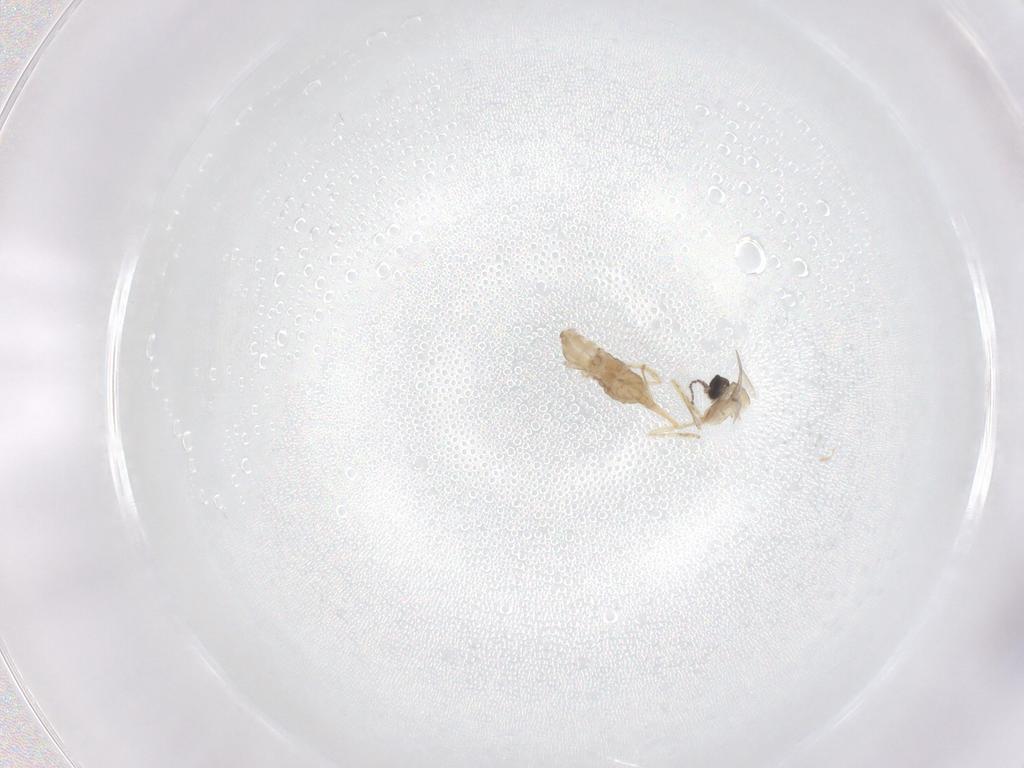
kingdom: Animalia
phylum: Arthropoda
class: Insecta
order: Diptera
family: Cecidomyiidae
